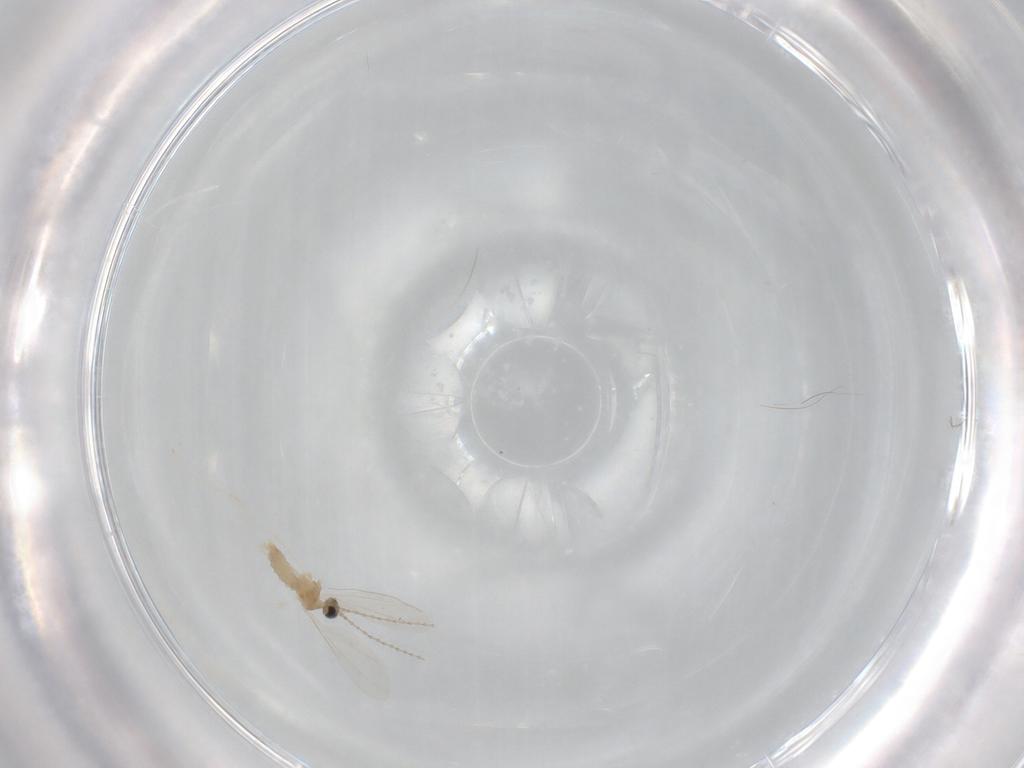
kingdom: Animalia
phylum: Arthropoda
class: Insecta
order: Diptera
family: Cecidomyiidae
